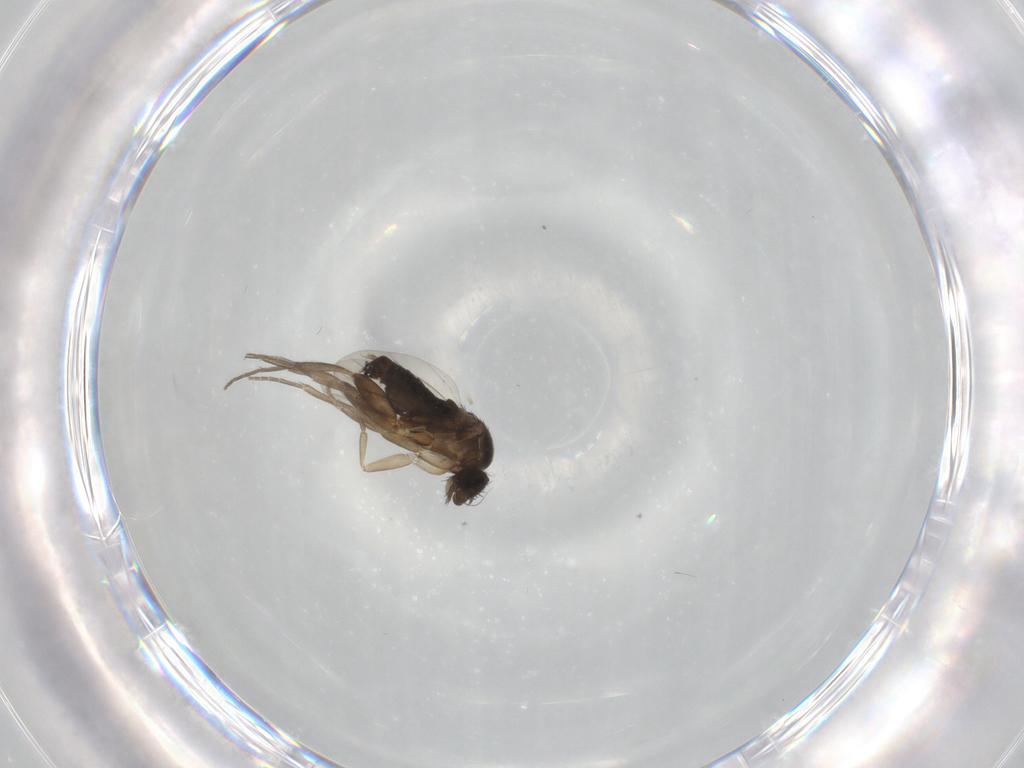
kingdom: Animalia
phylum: Arthropoda
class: Insecta
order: Diptera
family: Phoridae
